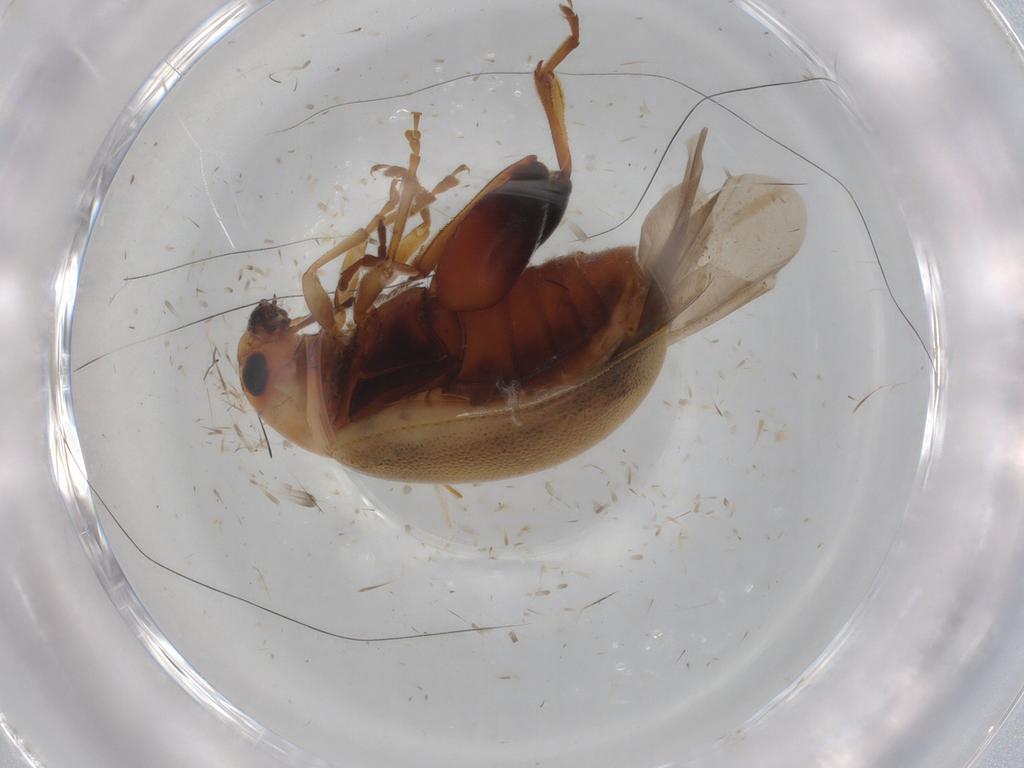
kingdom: Animalia
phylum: Arthropoda
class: Insecta
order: Coleoptera
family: Chrysomelidae
